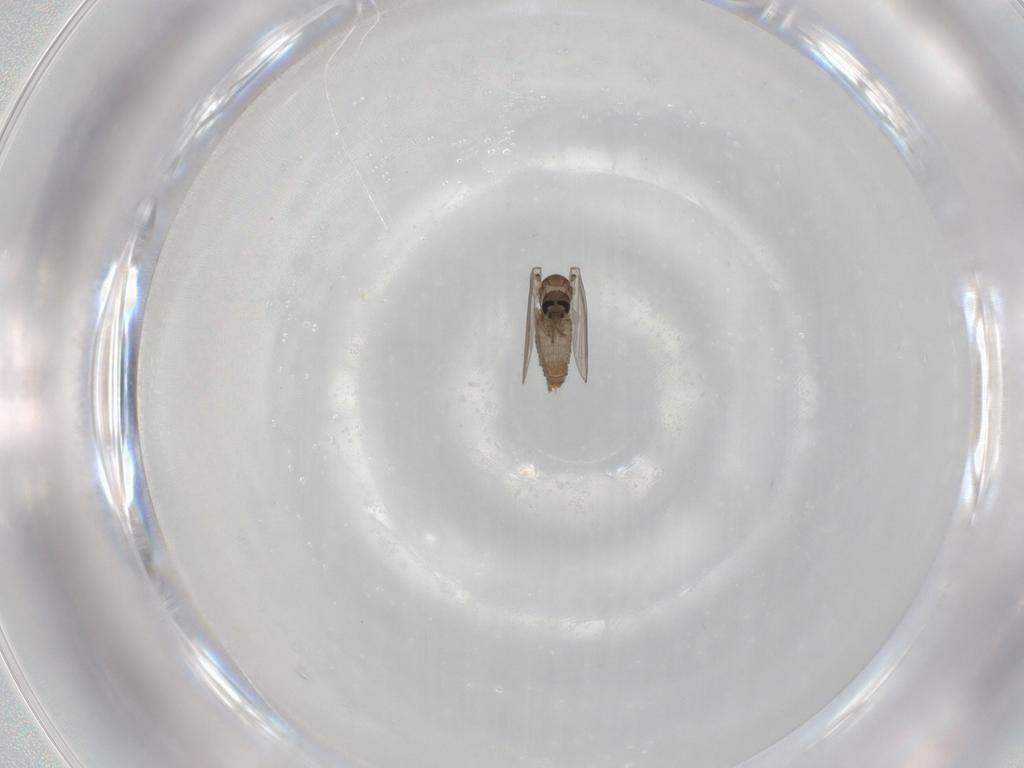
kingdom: Animalia
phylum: Arthropoda
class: Insecta
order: Diptera
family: Psychodidae
